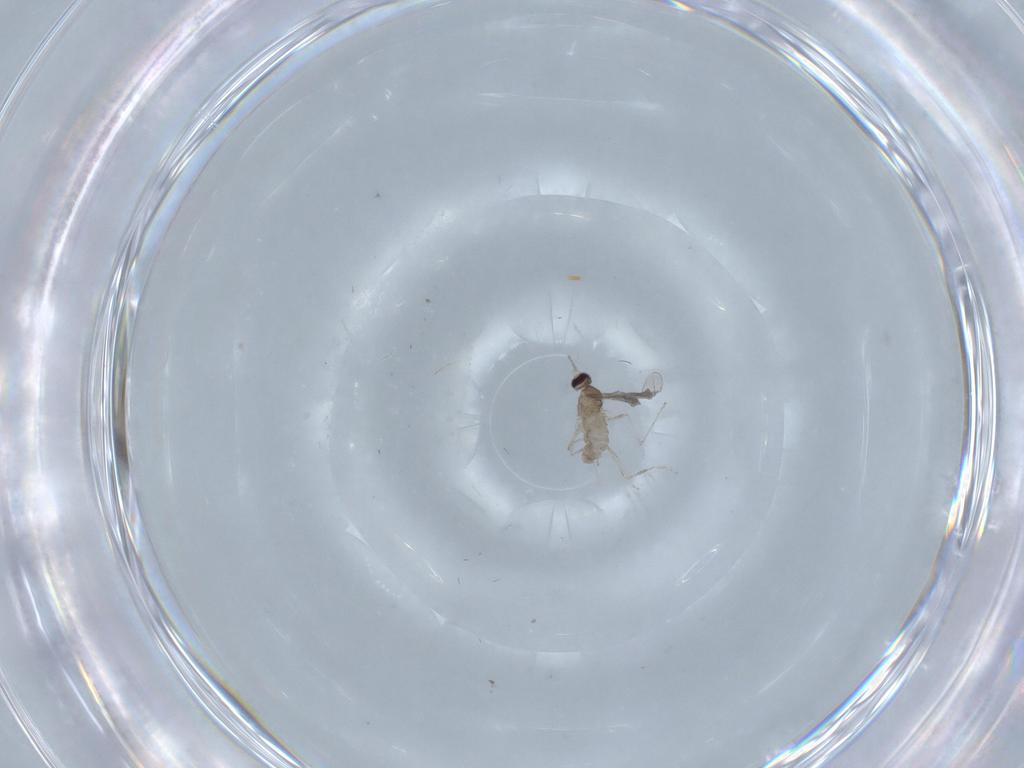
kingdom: Animalia
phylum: Arthropoda
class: Insecta
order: Diptera
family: Cecidomyiidae
